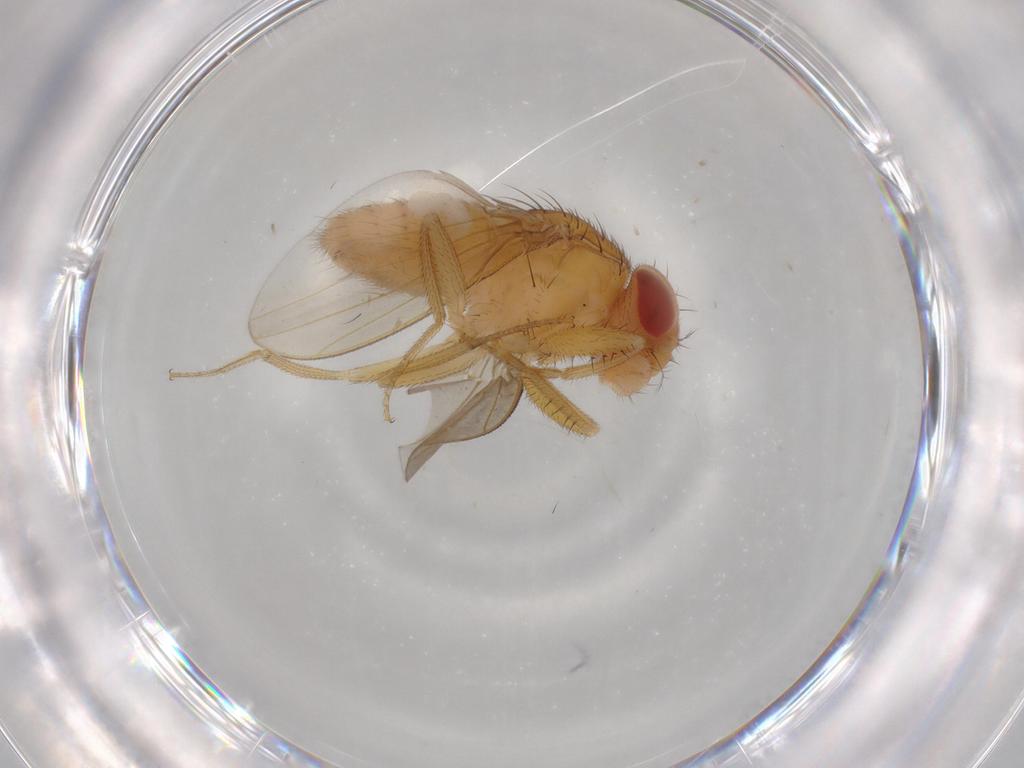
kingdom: Animalia
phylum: Arthropoda
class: Insecta
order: Diptera
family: Drosophilidae
